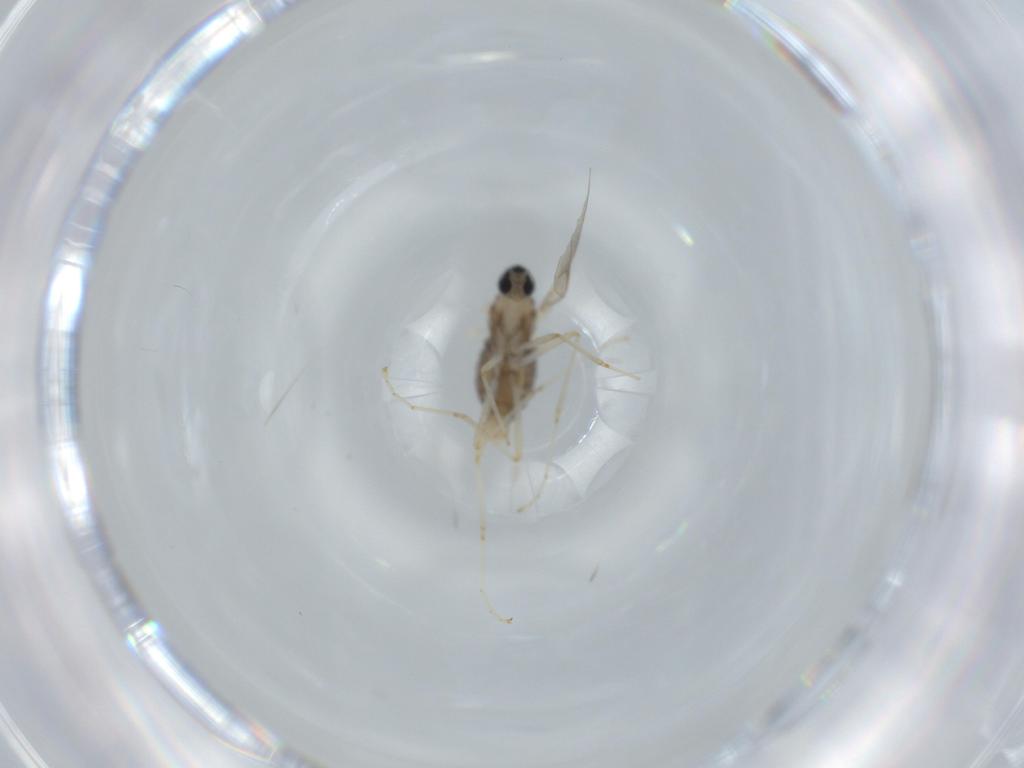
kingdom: Animalia
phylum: Arthropoda
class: Insecta
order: Diptera
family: Cecidomyiidae
